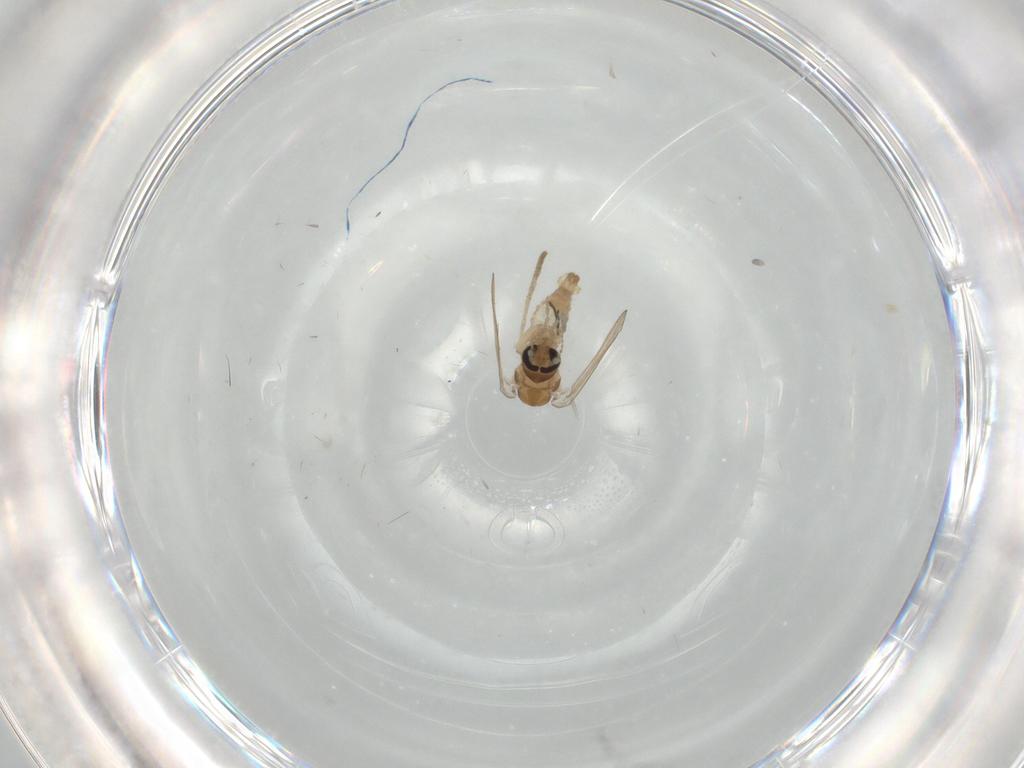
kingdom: Animalia
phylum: Arthropoda
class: Insecta
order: Diptera
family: Psychodidae
